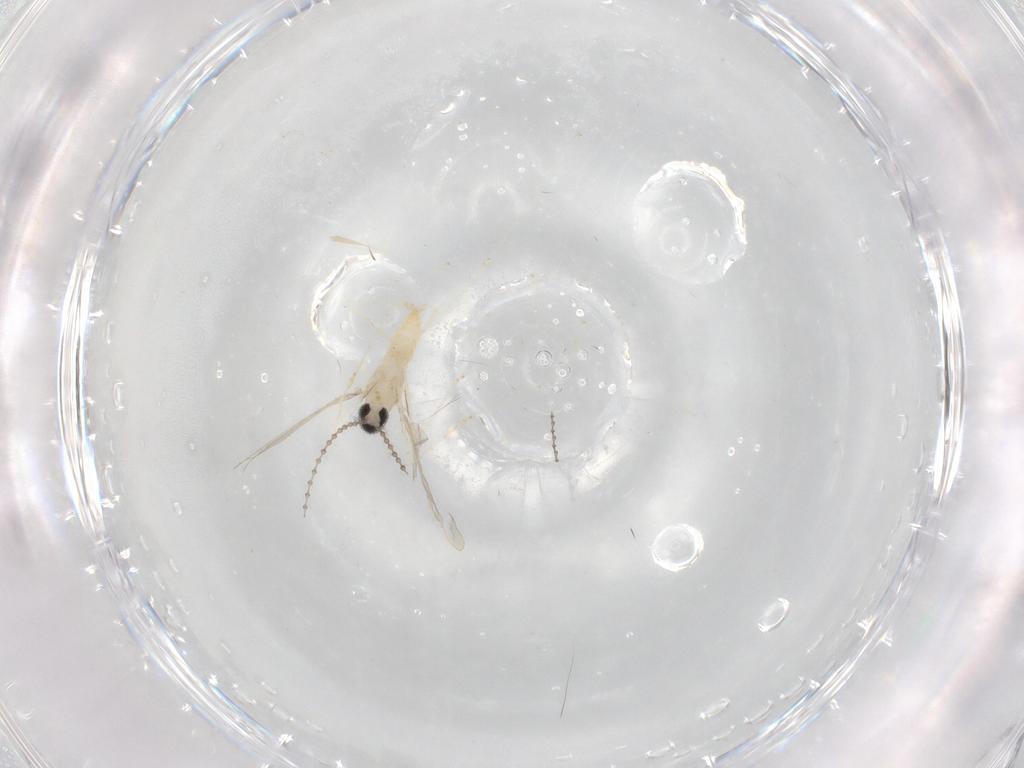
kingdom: Animalia
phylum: Arthropoda
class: Insecta
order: Diptera
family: Cecidomyiidae
